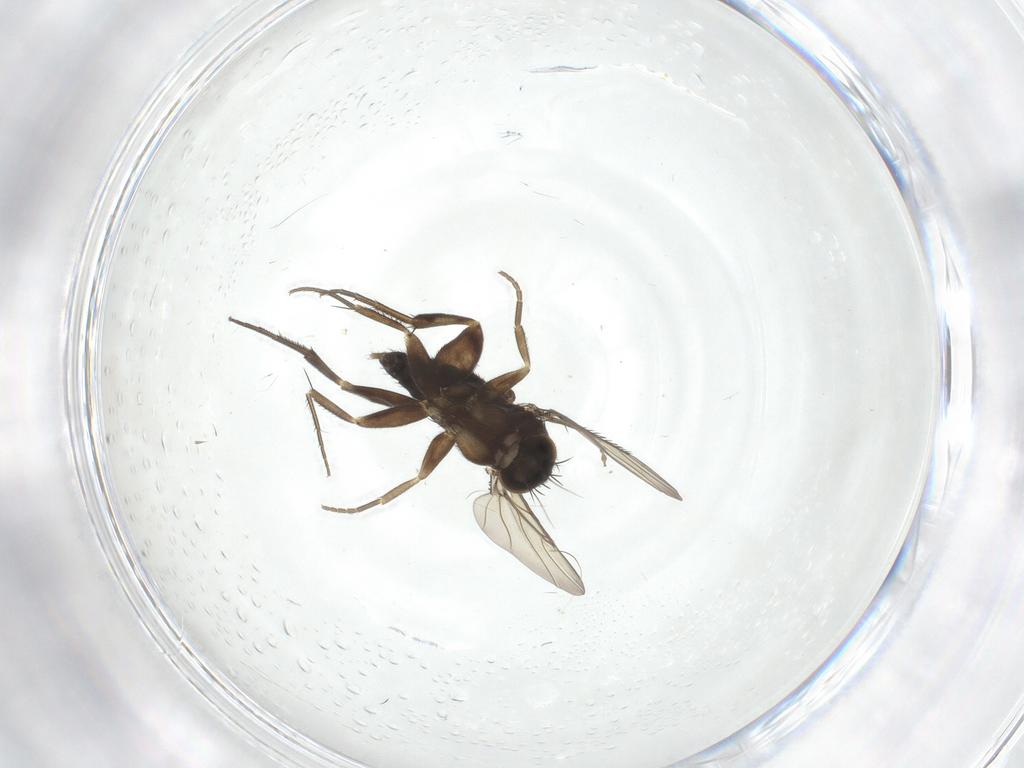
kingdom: Animalia
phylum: Arthropoda
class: Insecta
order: Diptera
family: Phoridae
